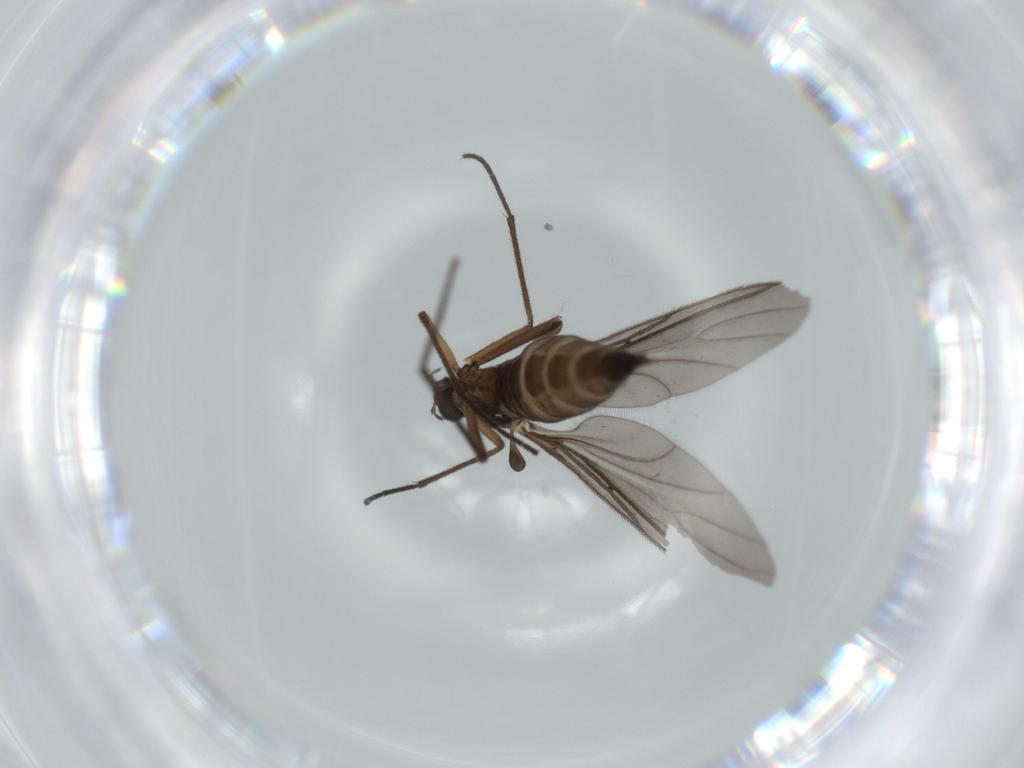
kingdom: Animalia
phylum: Arthropoda
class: Insecta
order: Diptera
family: Sciaridae
